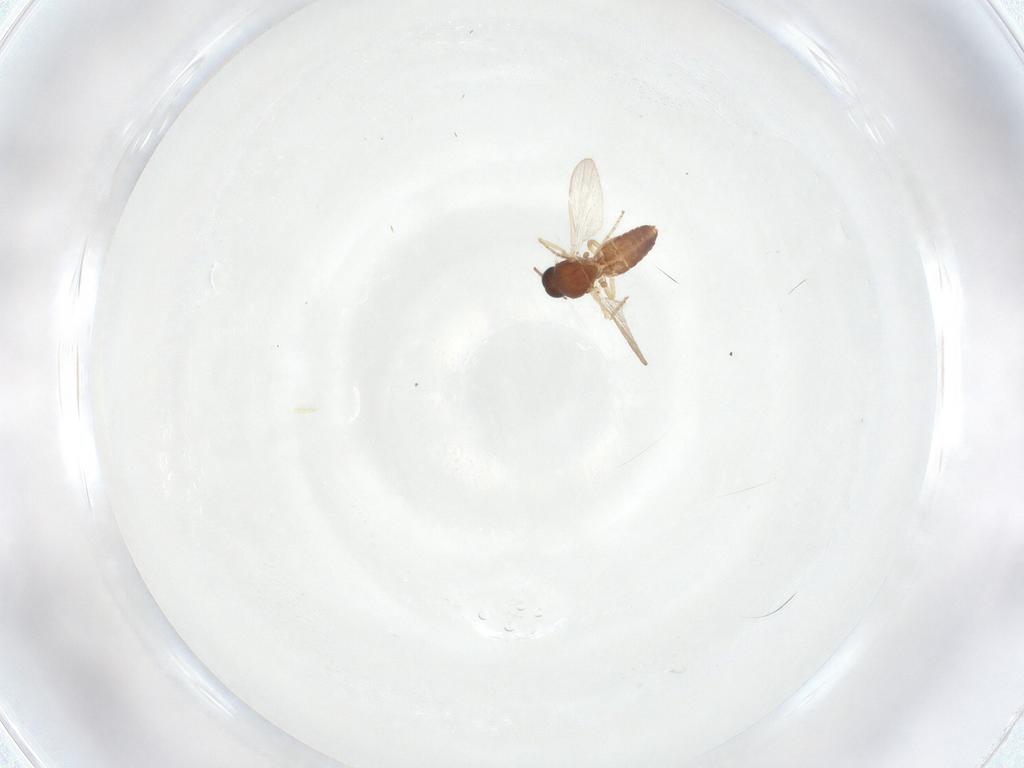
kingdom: Animalia
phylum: Arthropoda
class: Insecta
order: Diptera
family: Ceratopogonidae
